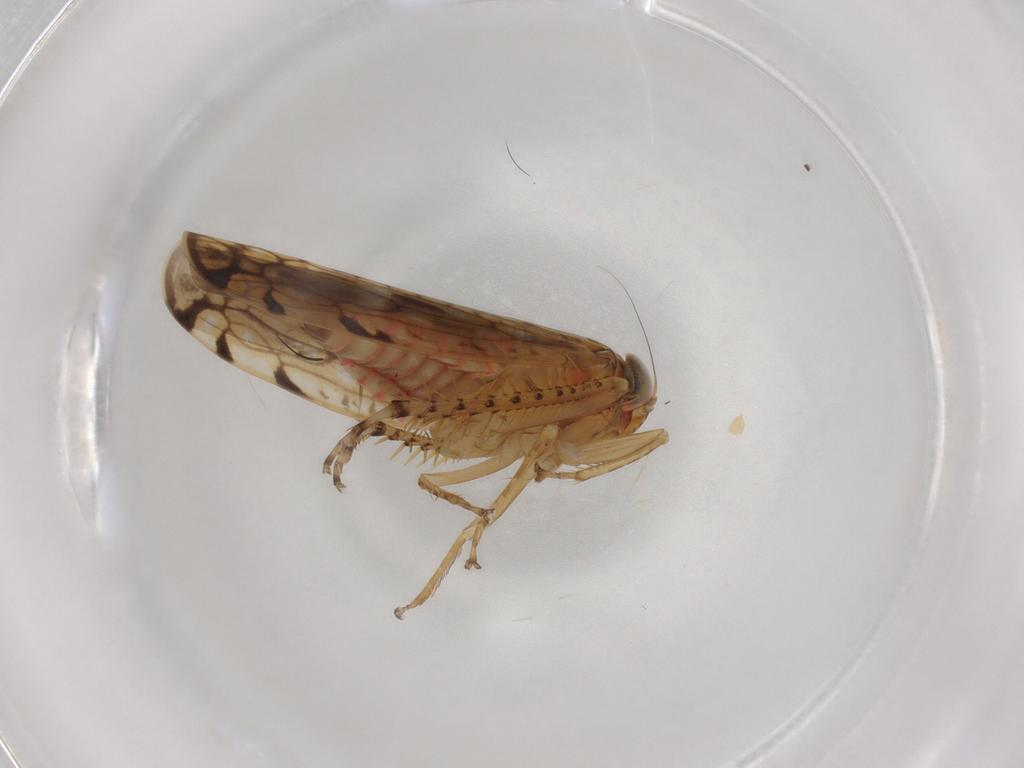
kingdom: Animalia
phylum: Arthropoda
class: Insecta
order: Hemiptera
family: Cicadellidae
